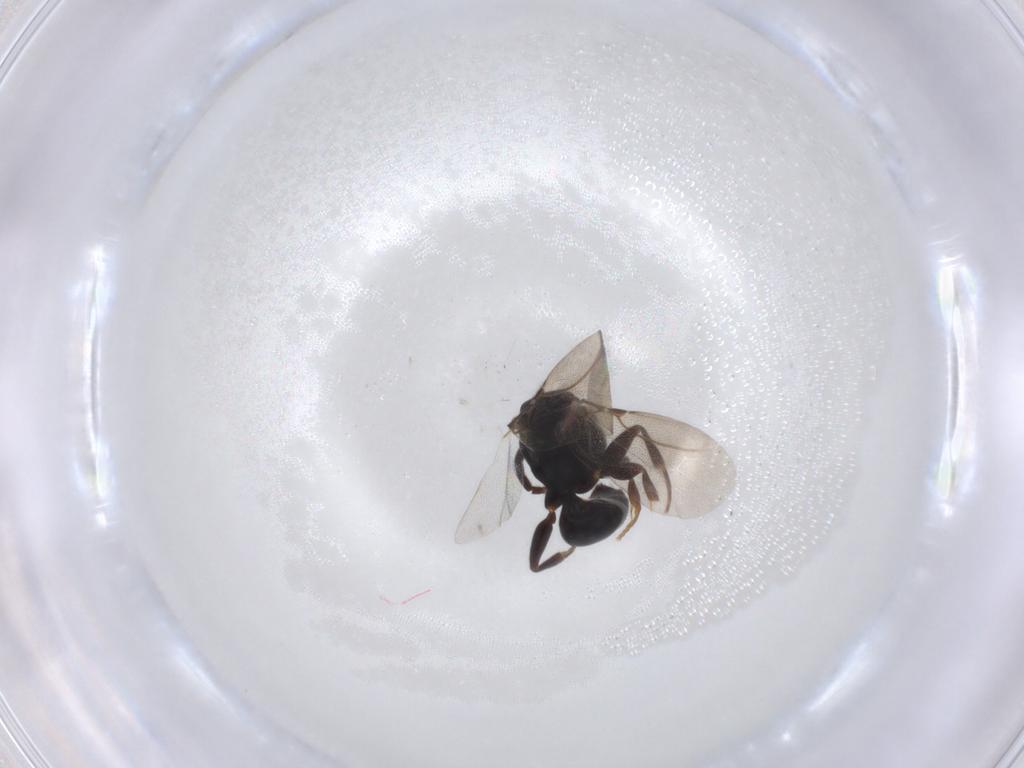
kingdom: Animalia
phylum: Arthropoda
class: Insecta
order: Hymenoptera
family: Bethylidae
